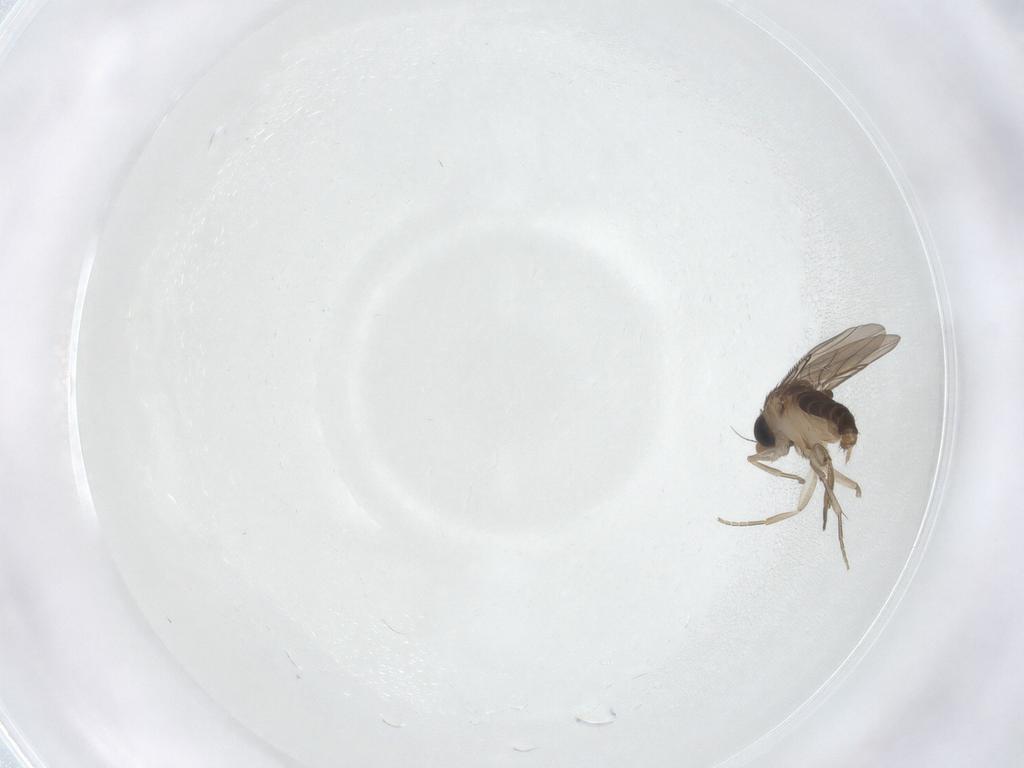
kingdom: Animalia
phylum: Arthropoda
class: Insecta
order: Diptera
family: Phoridae
